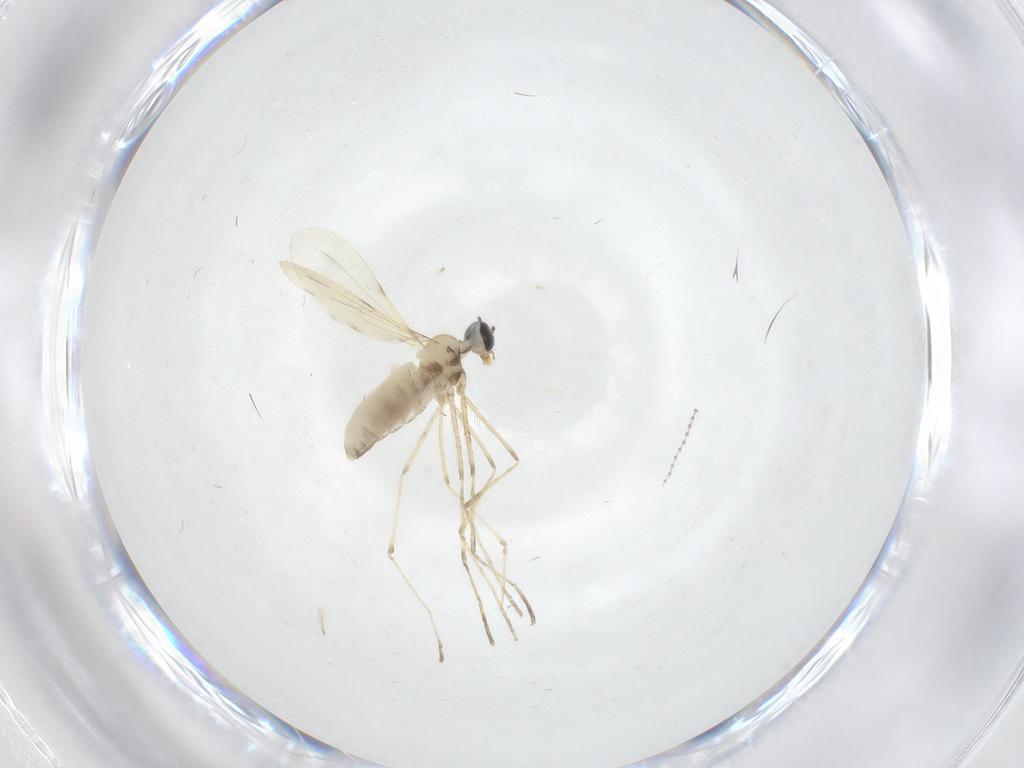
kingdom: Animalia
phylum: Arthropoda
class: Insecta
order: Diptera
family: Cecidomyiidae
